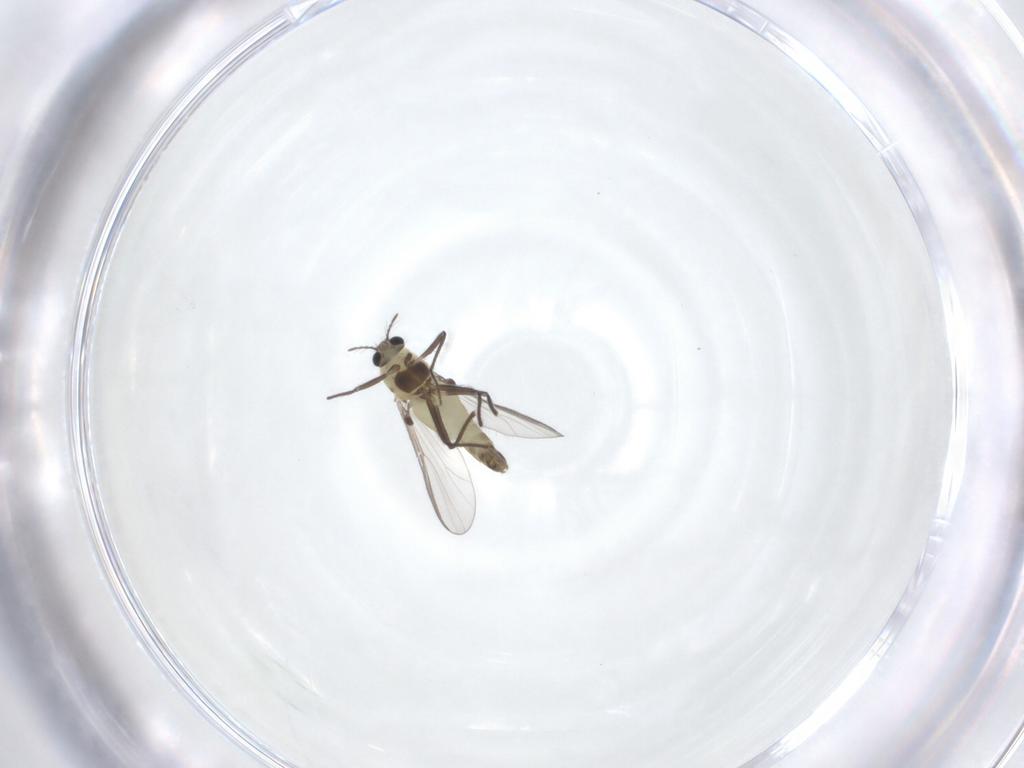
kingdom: Animalia
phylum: Arthropoda
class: Insecta
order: Diptera
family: Chironomidae
